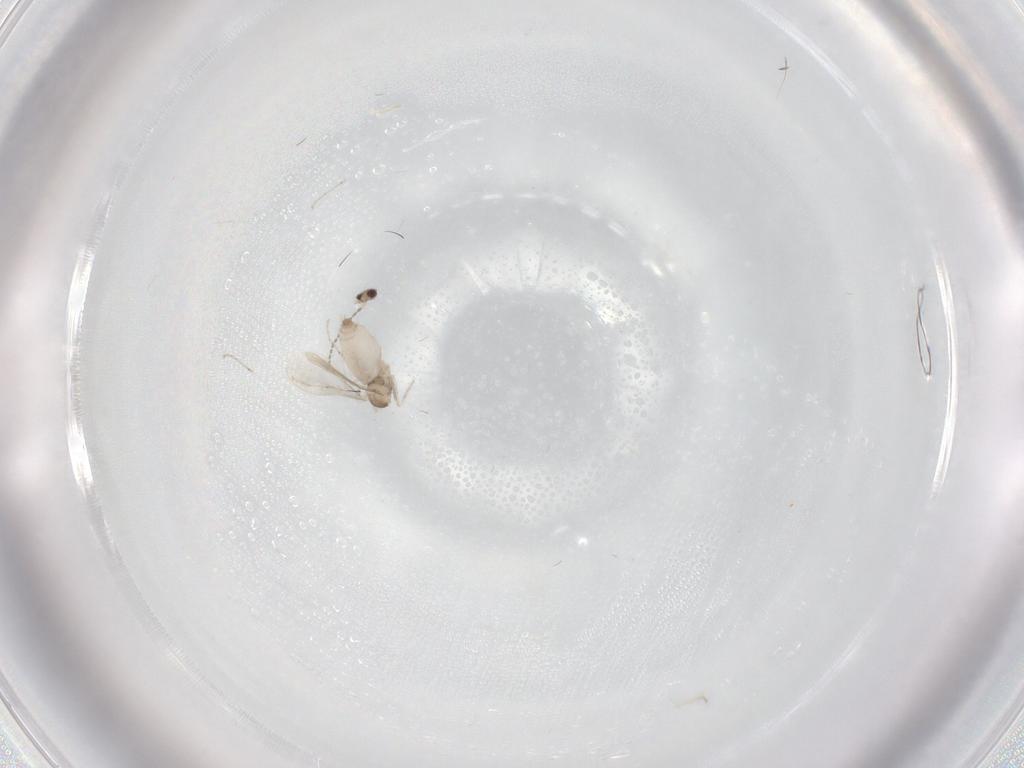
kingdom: Animalia
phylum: Arthropoda
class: Insecta
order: Diptera
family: Cecidomyiidae
